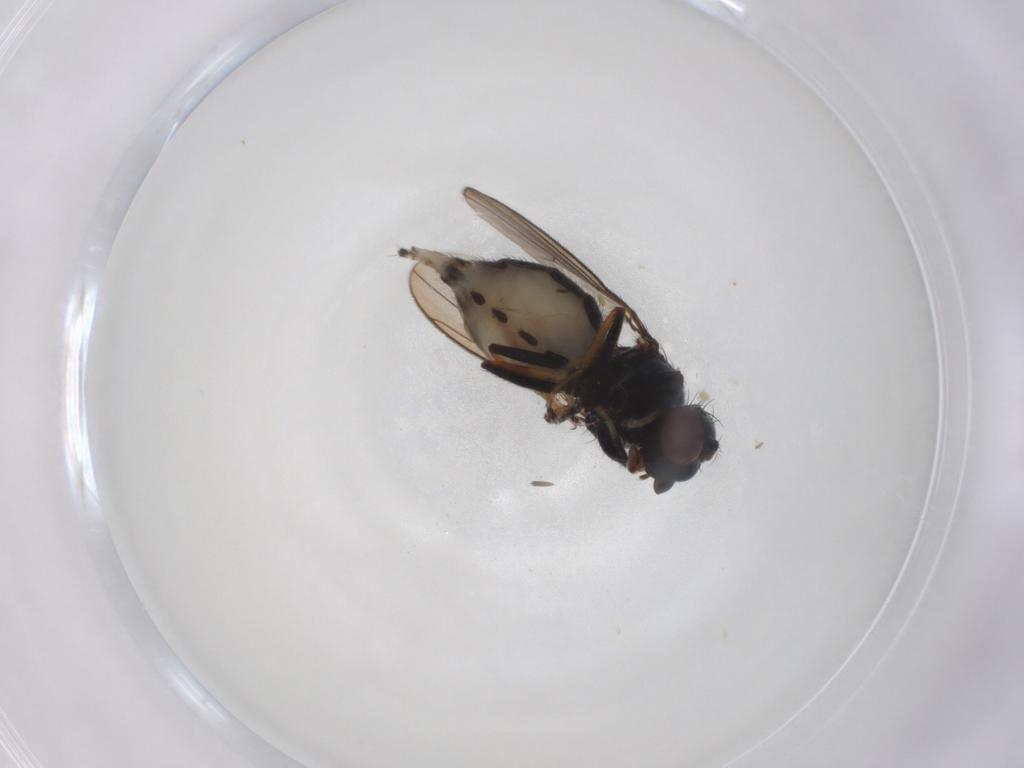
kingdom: Animalia
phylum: Arthropoda
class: Insecta
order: Diptera
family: Ephydridae
